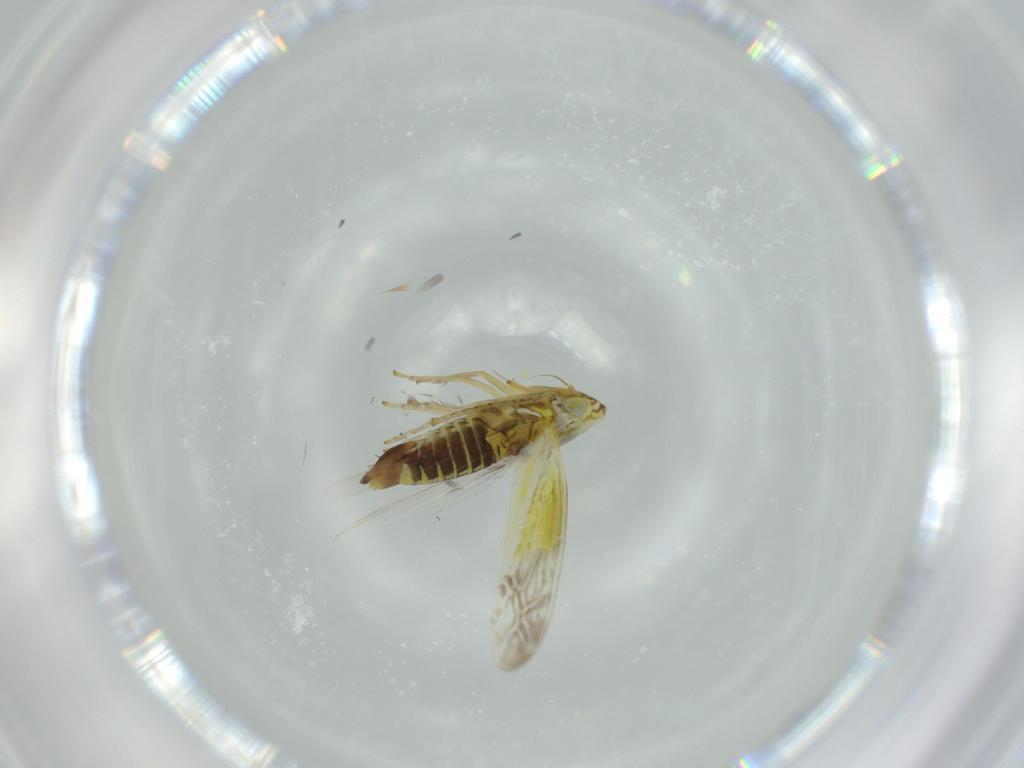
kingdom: Animalia
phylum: Arthropoda
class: Insecta
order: Hemiptera
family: Cicadellidae
